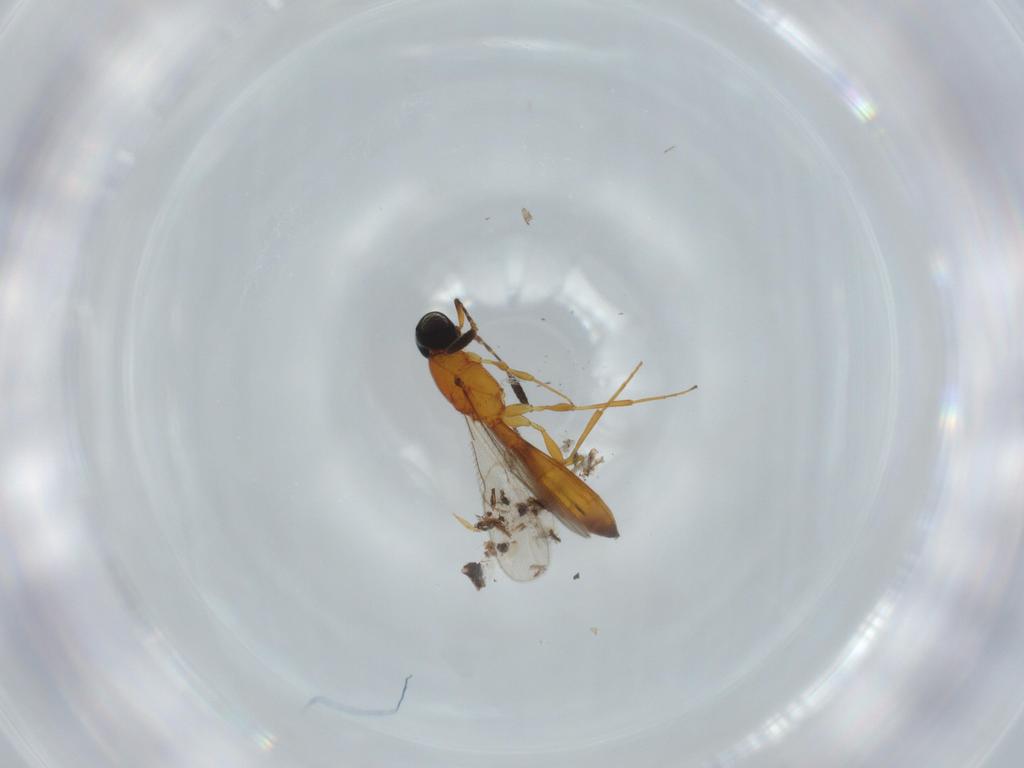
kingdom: Animalia
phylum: Arthropoda
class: Insecta
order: Hymenoptera
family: Scelionidae
